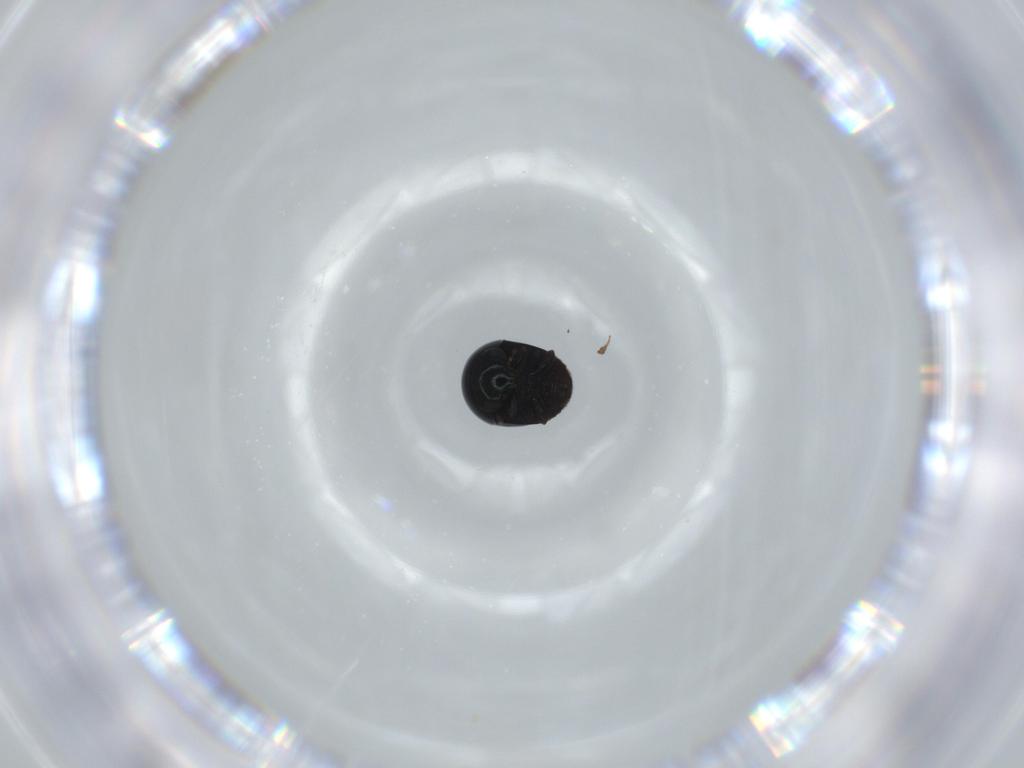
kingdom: Animalia
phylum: Arthropoda
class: Insecta
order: Coleoptera
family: Cybocephalidae
